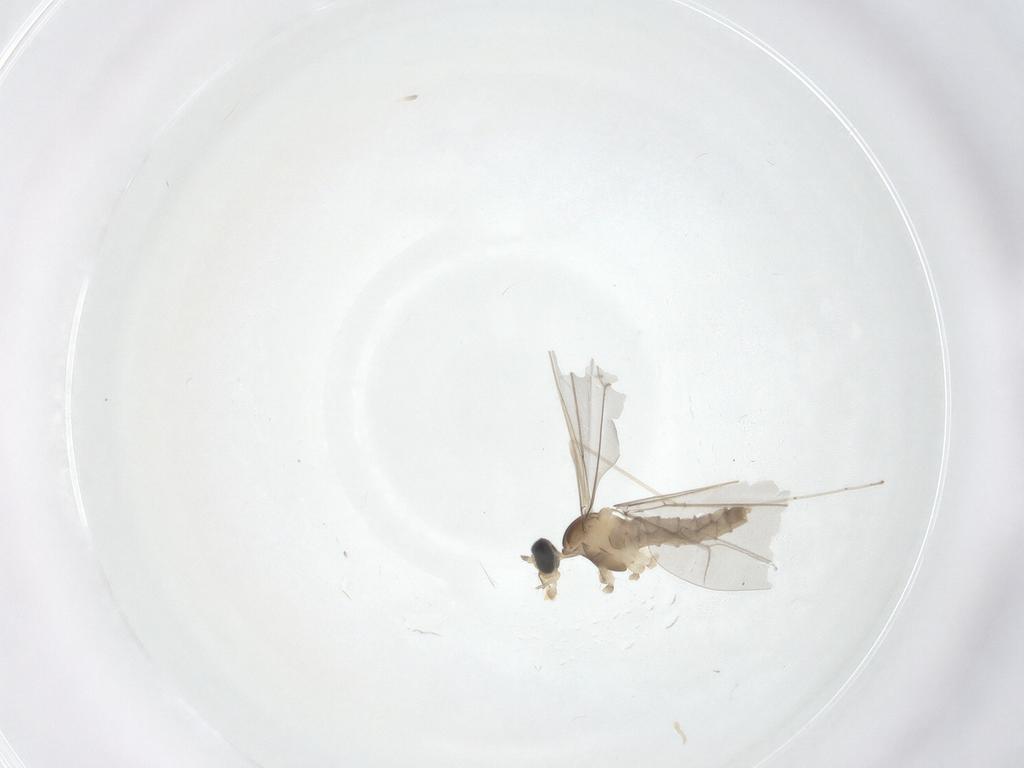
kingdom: Animalia
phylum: Arthropoda
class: Insecta
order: Diptera
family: Cecidomyiidae
